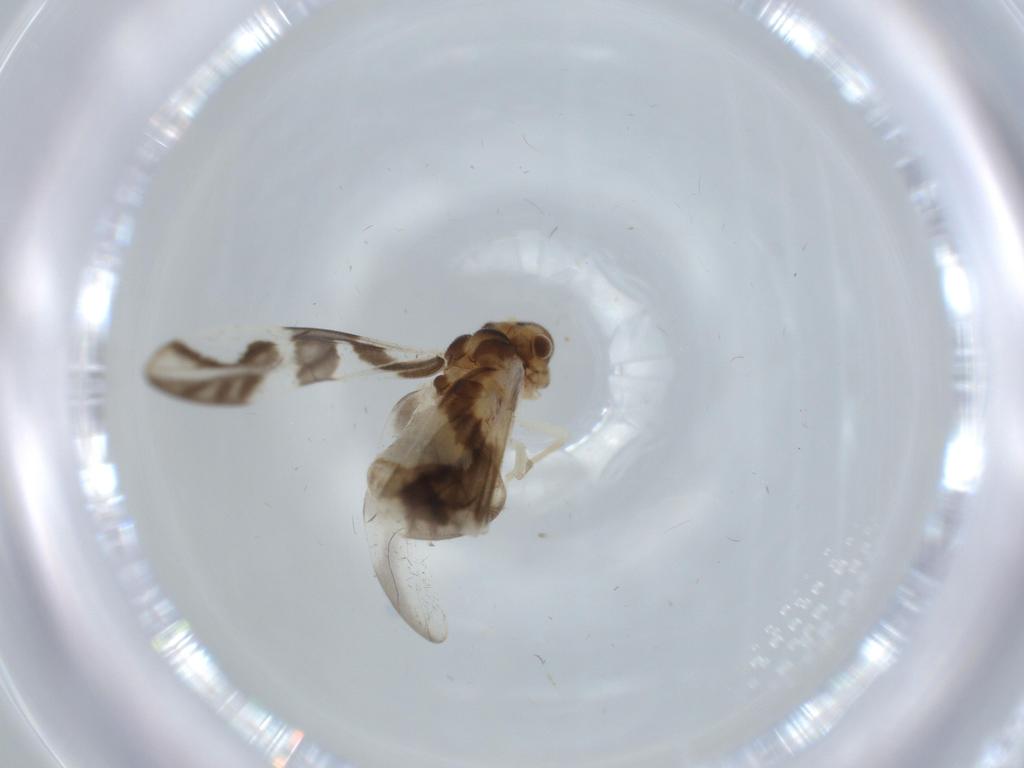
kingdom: Animalia
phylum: Arthropoda
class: Insecta
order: Psocodea
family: Caeciliusidae
